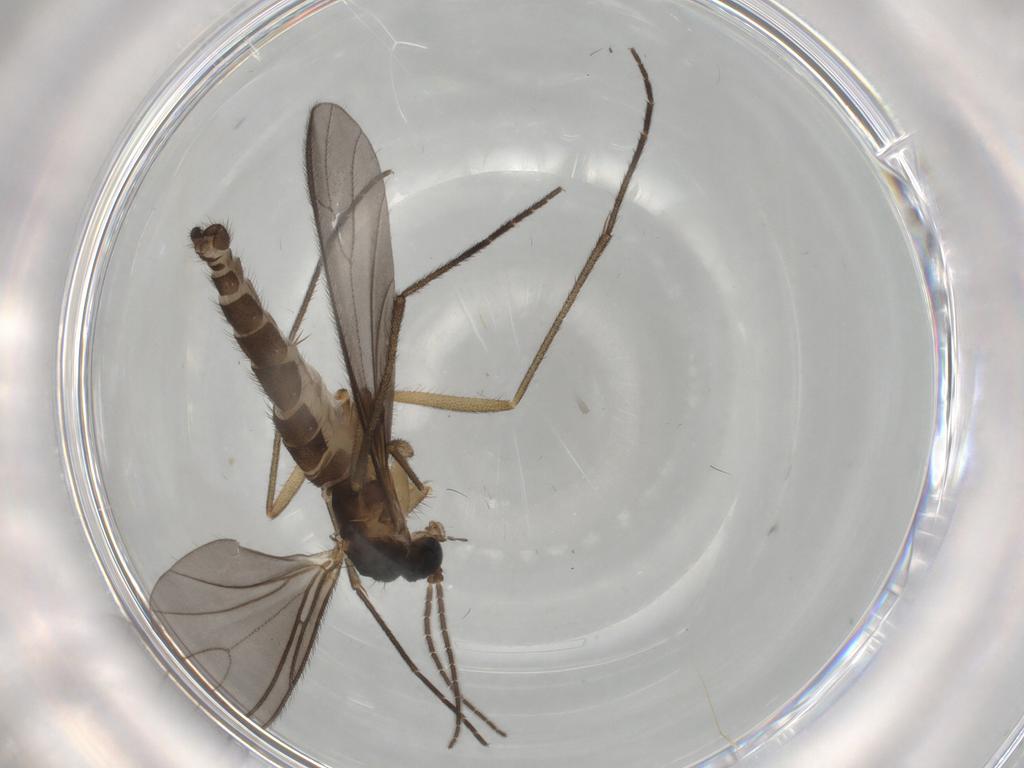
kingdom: Animalia
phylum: Arthropoda
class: Insecta
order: Diptera
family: Sciaridae
